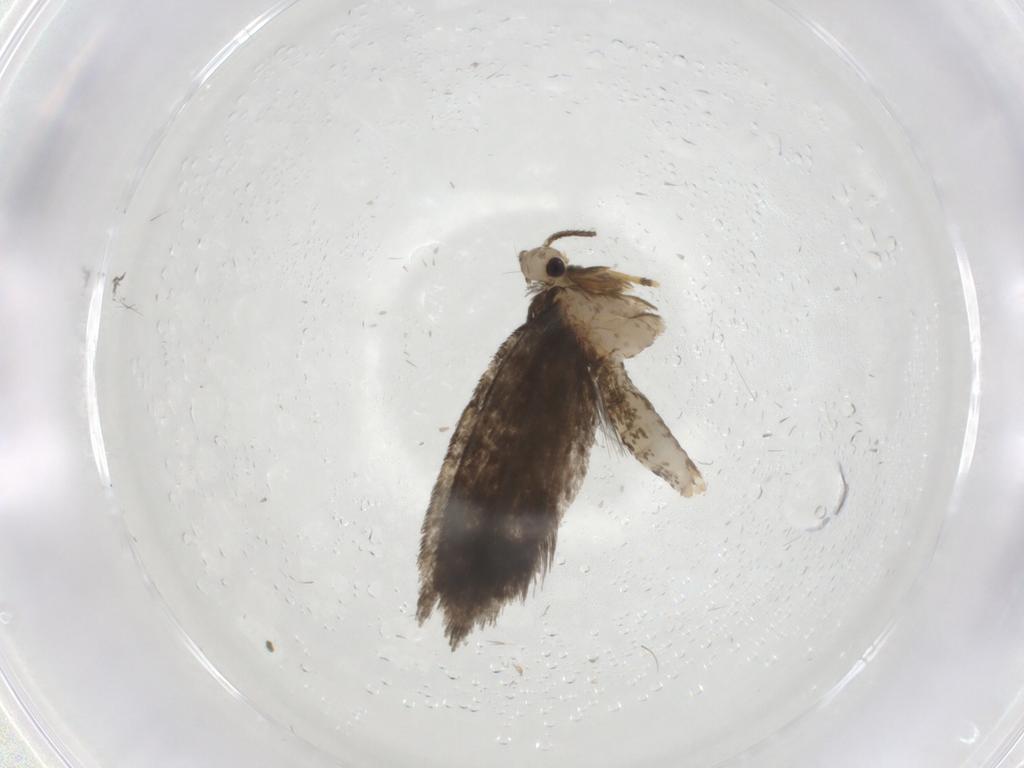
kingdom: Animalia
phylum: Arthropoda
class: Insecta
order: Lepidoptera
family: Psychidae
